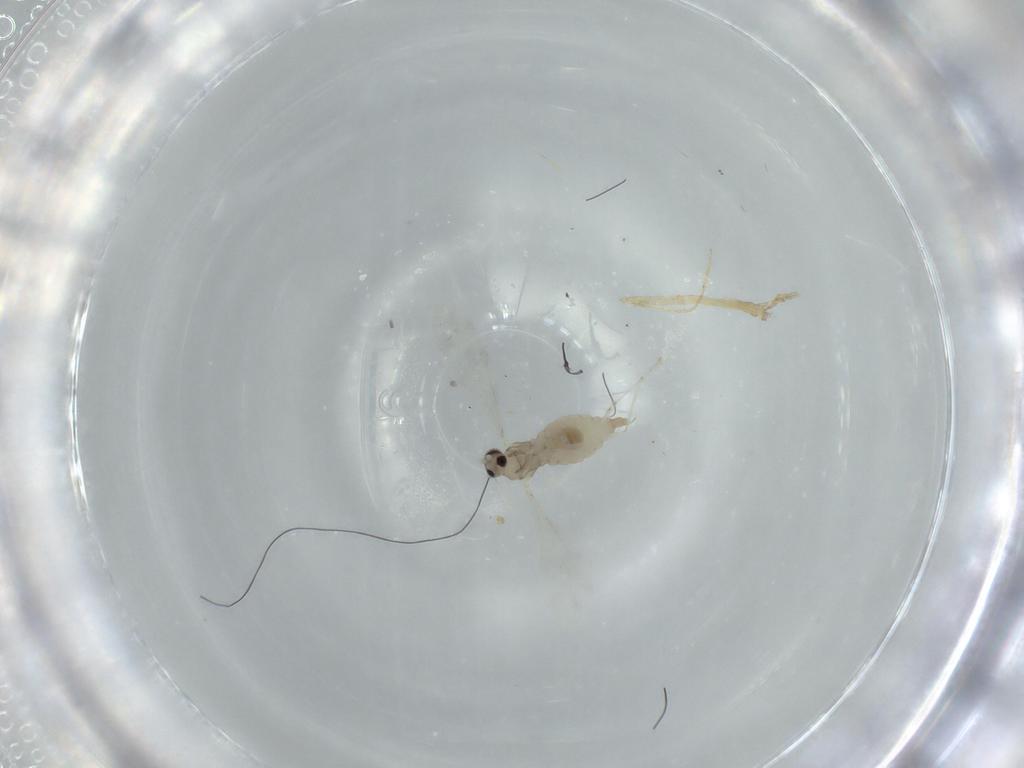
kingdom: Animalia
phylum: Arthropoda
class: Insecta
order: Diptera
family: Cecidomyiidae
